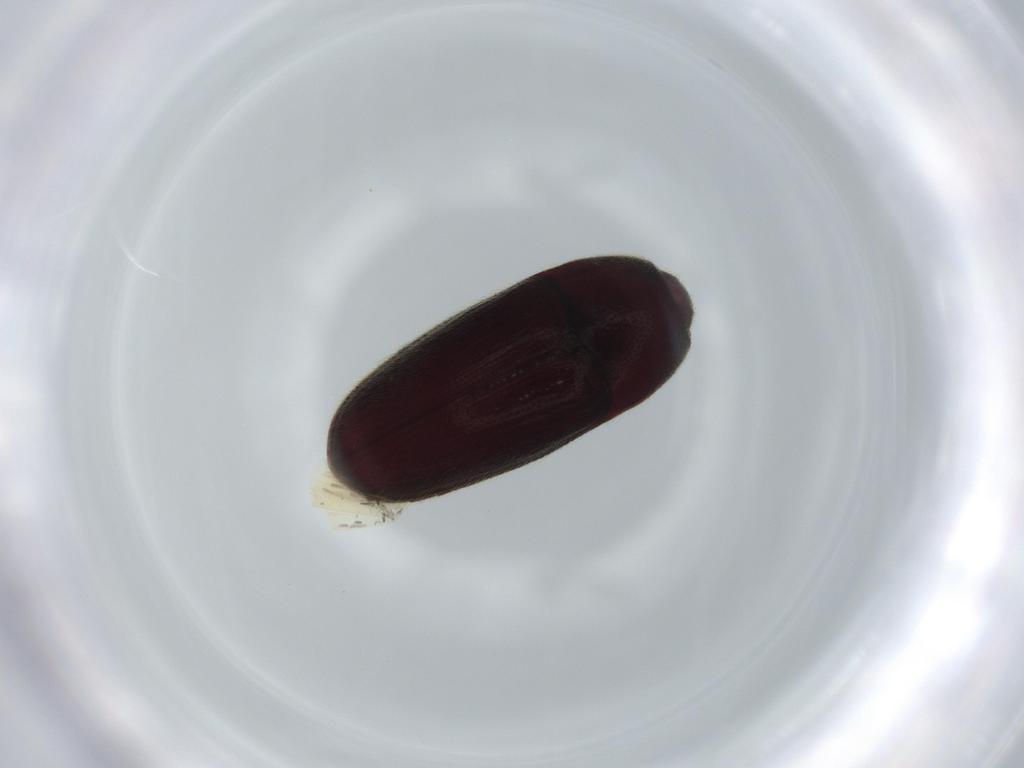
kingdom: Animalia
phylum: Arthropoda
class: Insecta
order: Coleoptera
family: Throscidae
